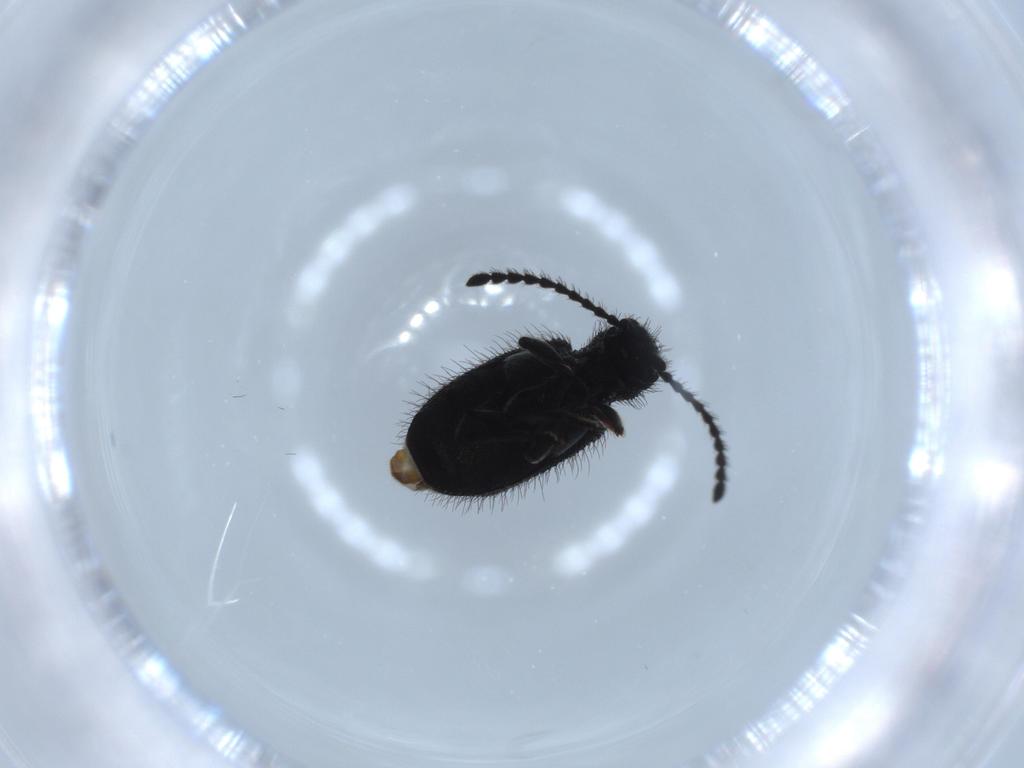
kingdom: Animalia
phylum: Arthropoda
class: Insecta
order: Coleoptera
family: Ptinidae
